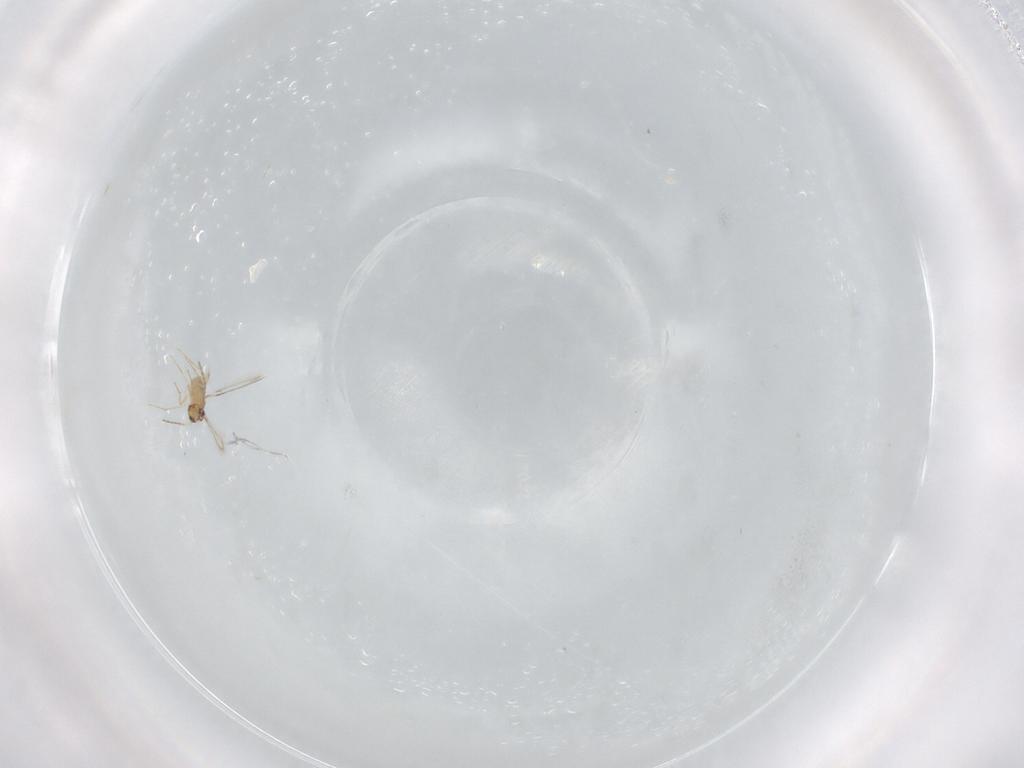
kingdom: Animalia
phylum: Arthropoda
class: Insecta
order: Hymenoptera
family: Mymaridae
